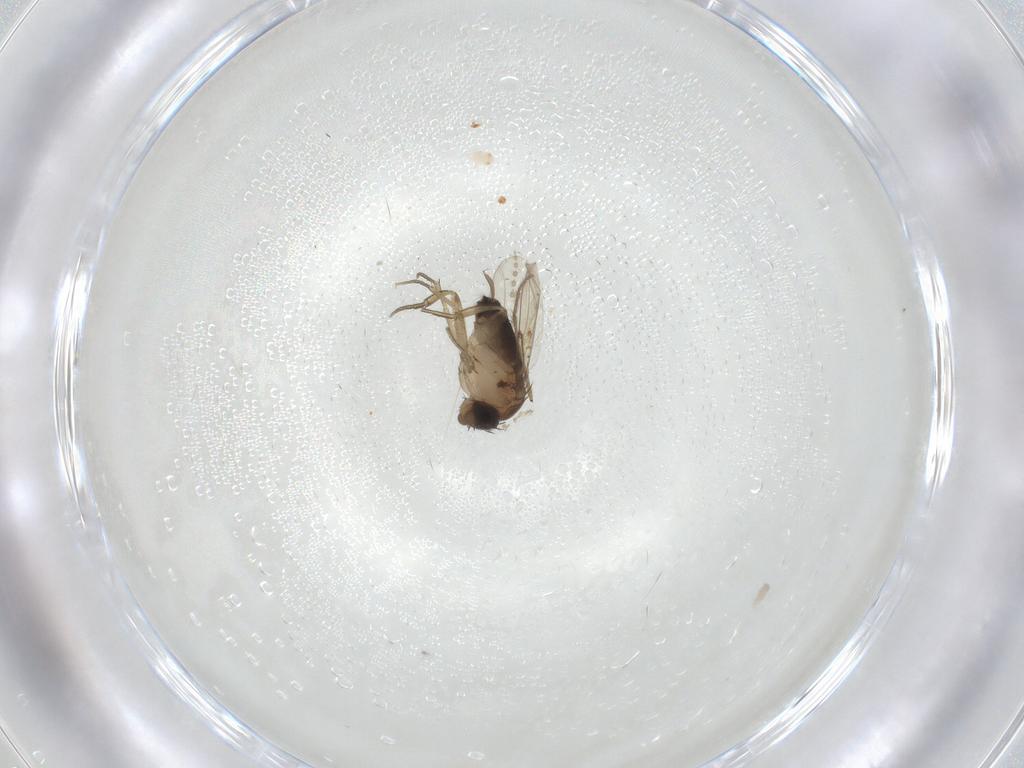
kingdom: Animalia
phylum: Arthropoda
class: Insecta
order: Diptera
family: Chironomidae
